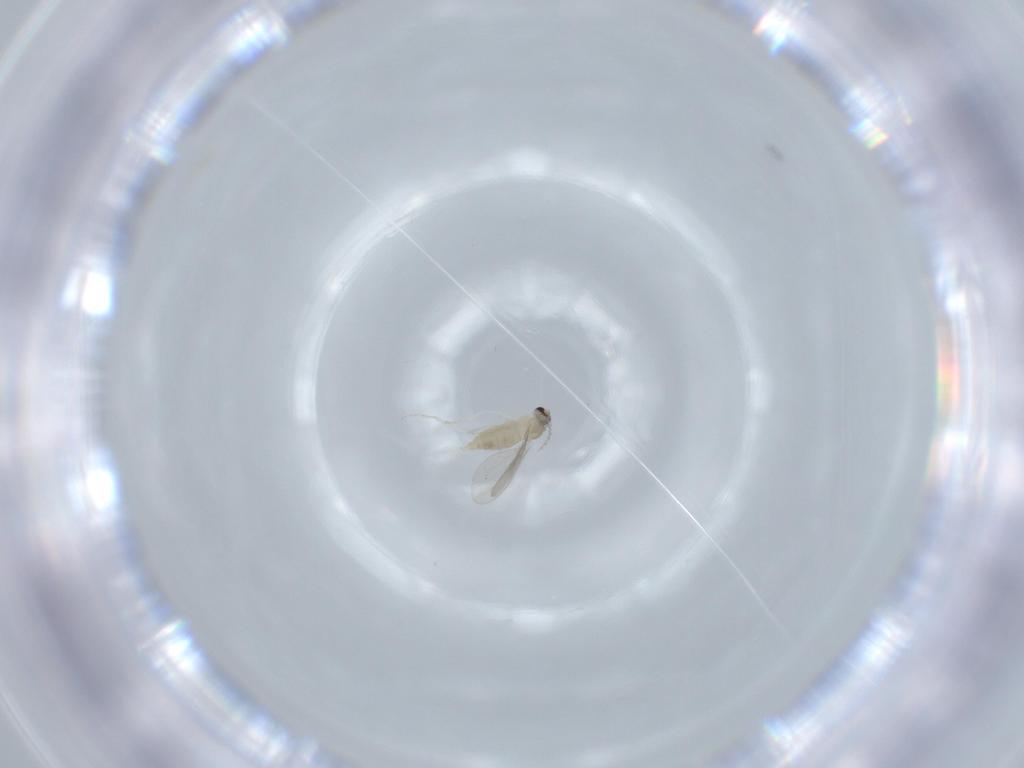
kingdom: Animalia
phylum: Arthropoda
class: Insecta
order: Diptera
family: Cecidomyiidae
